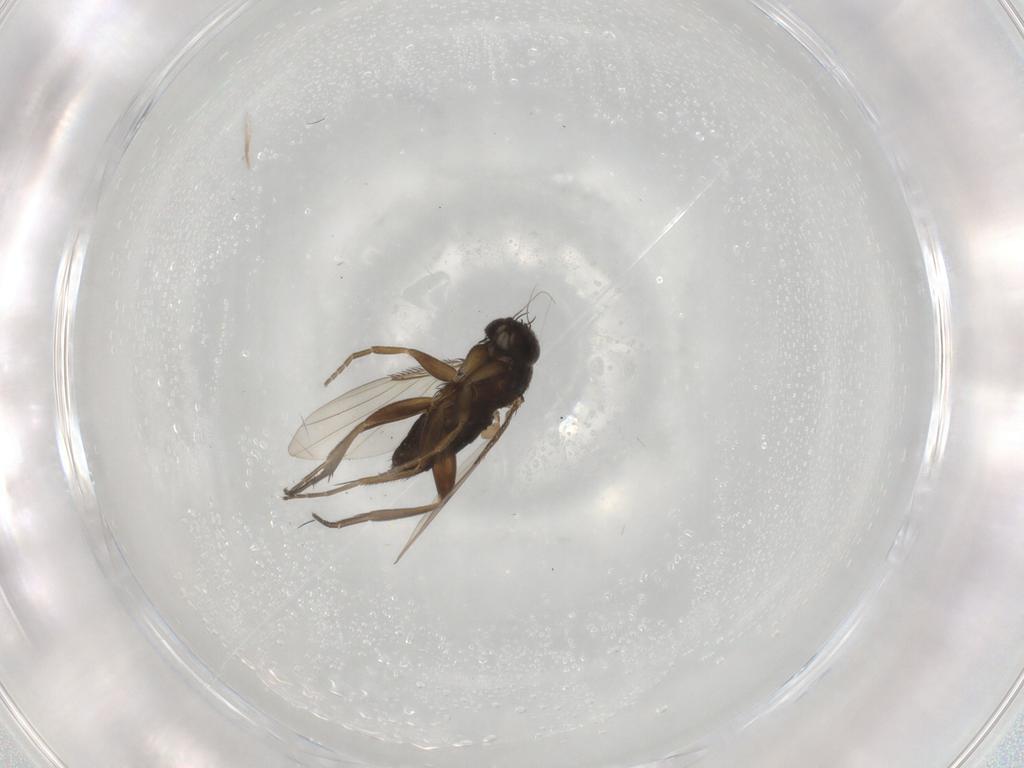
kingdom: Animalia
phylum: Arthropoda
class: Insecta
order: Diptera
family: Phoridae
